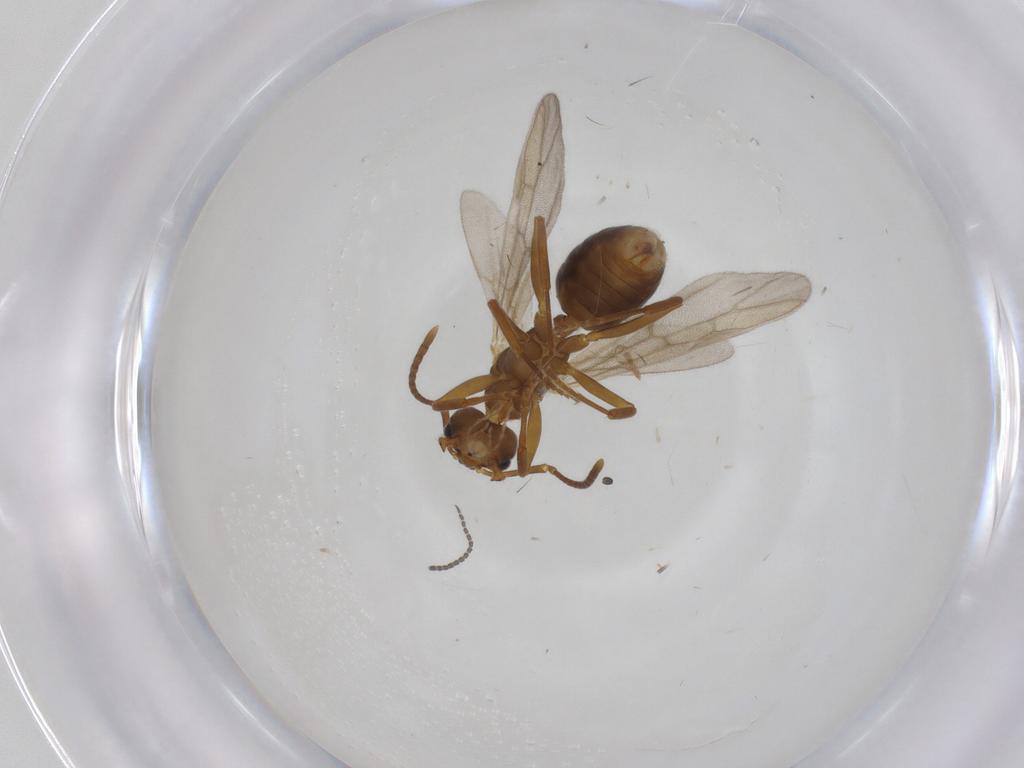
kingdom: Animalia
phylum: Arthropoda
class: Insecta
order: Hymenoptera
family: Formicidae
